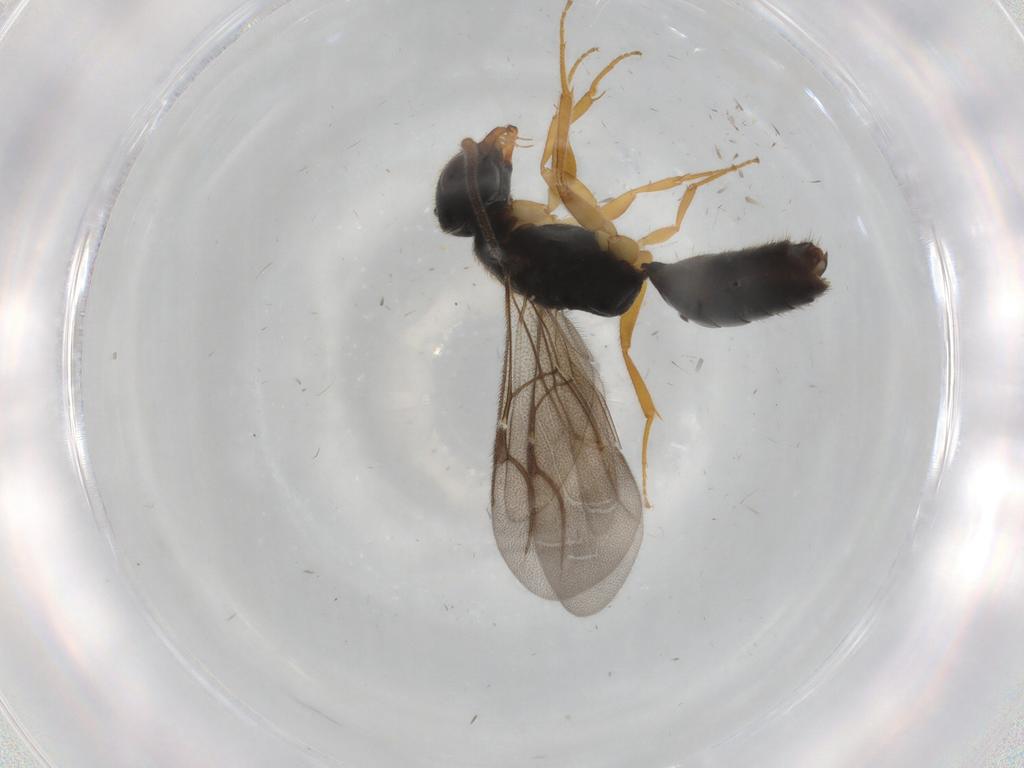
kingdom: Animalia
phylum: Arthropoda
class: Insecta
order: Hymenoptera
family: Bethylidae
